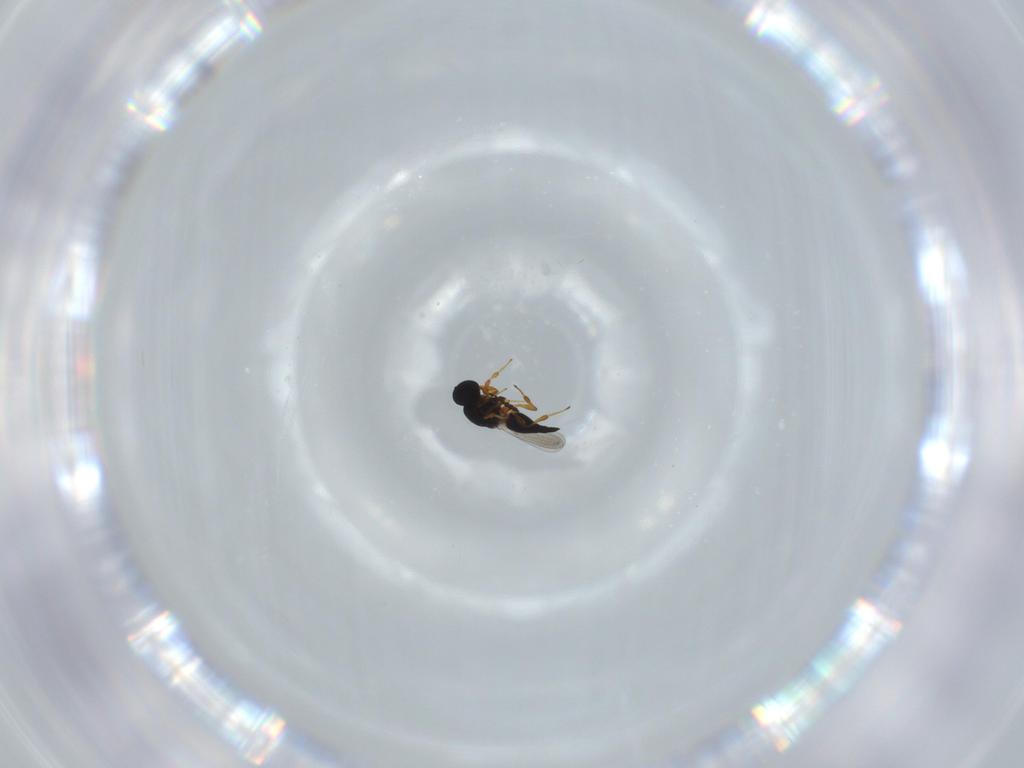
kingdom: Animalia
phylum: Arthropoda
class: Insecta
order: Hymenoptera
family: Platygastridae
